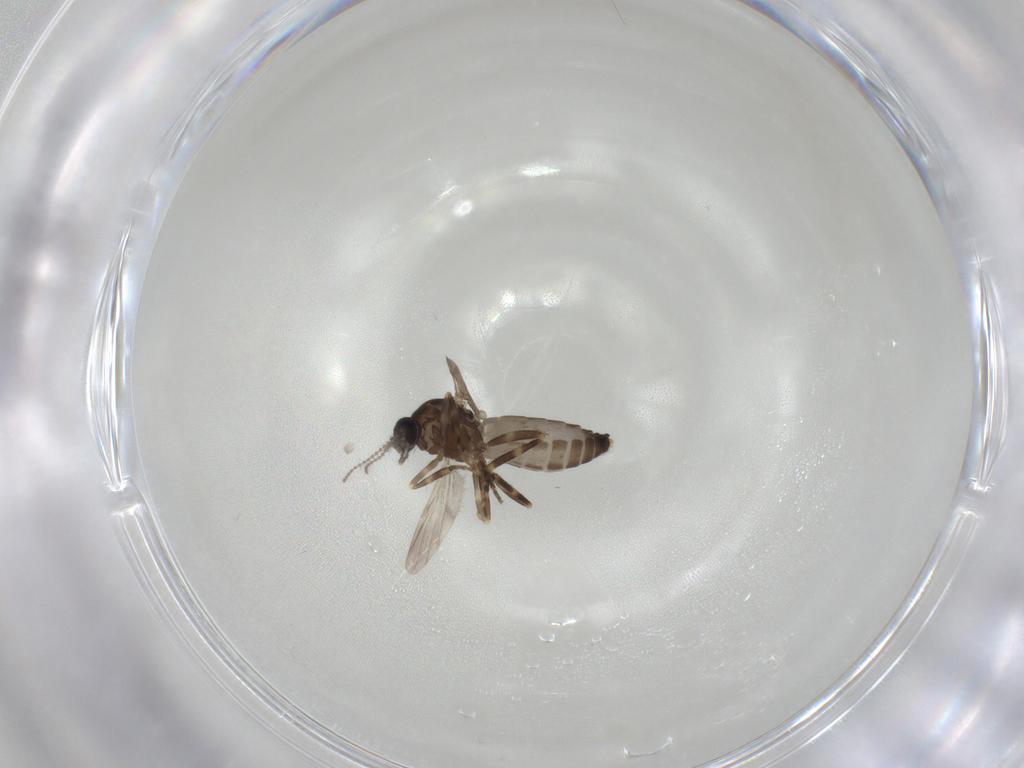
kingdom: Animalia
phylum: Arthropoda
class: Insecta
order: Diptera
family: Ceratopogonidae
